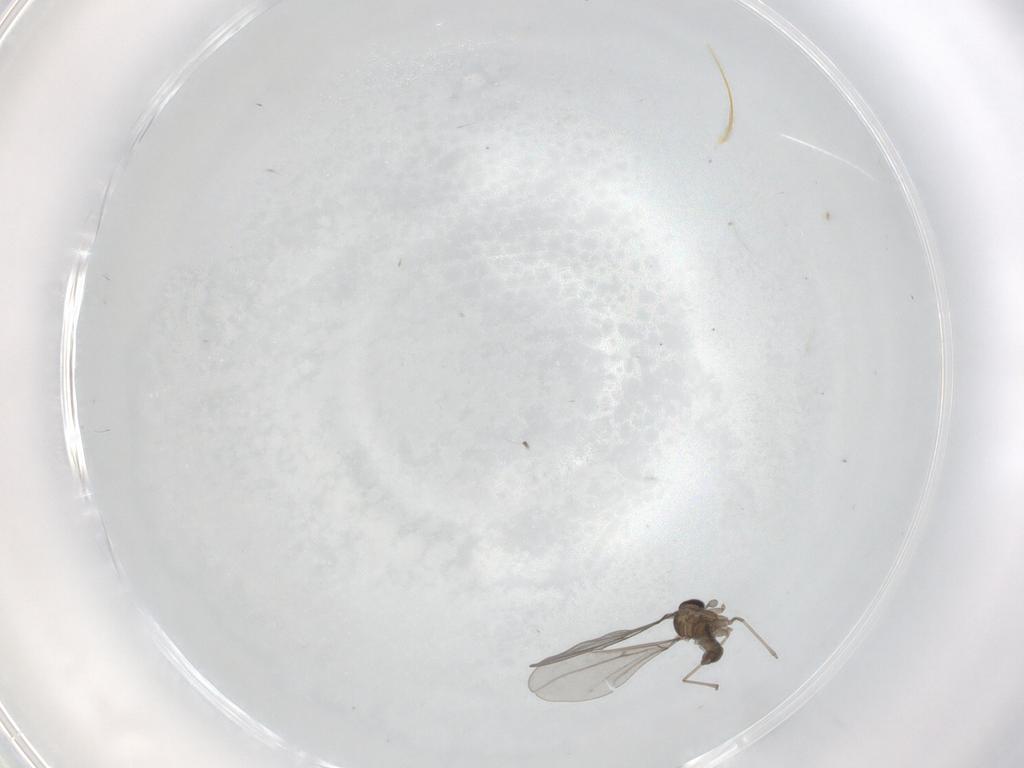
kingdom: Animalia
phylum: Arthropoda
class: Insecta
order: Diptera
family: Cecidomyiidae
